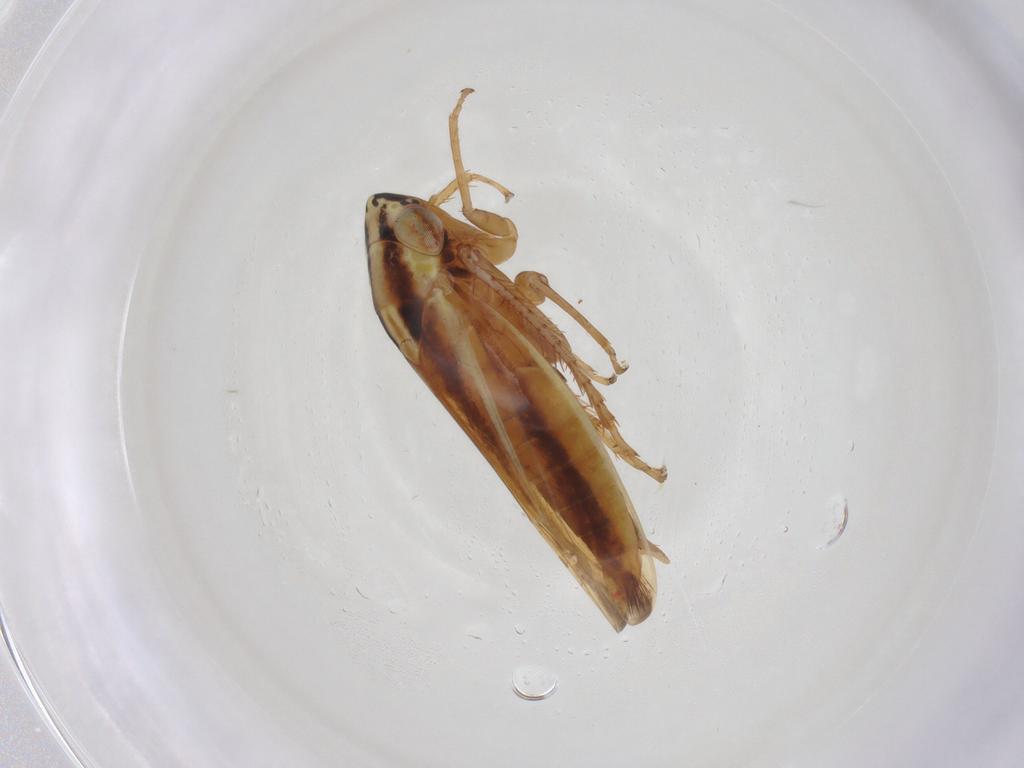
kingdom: Animalia
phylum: Arthropoda
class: Insecta
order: Hemiptera
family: Cicadellidae
